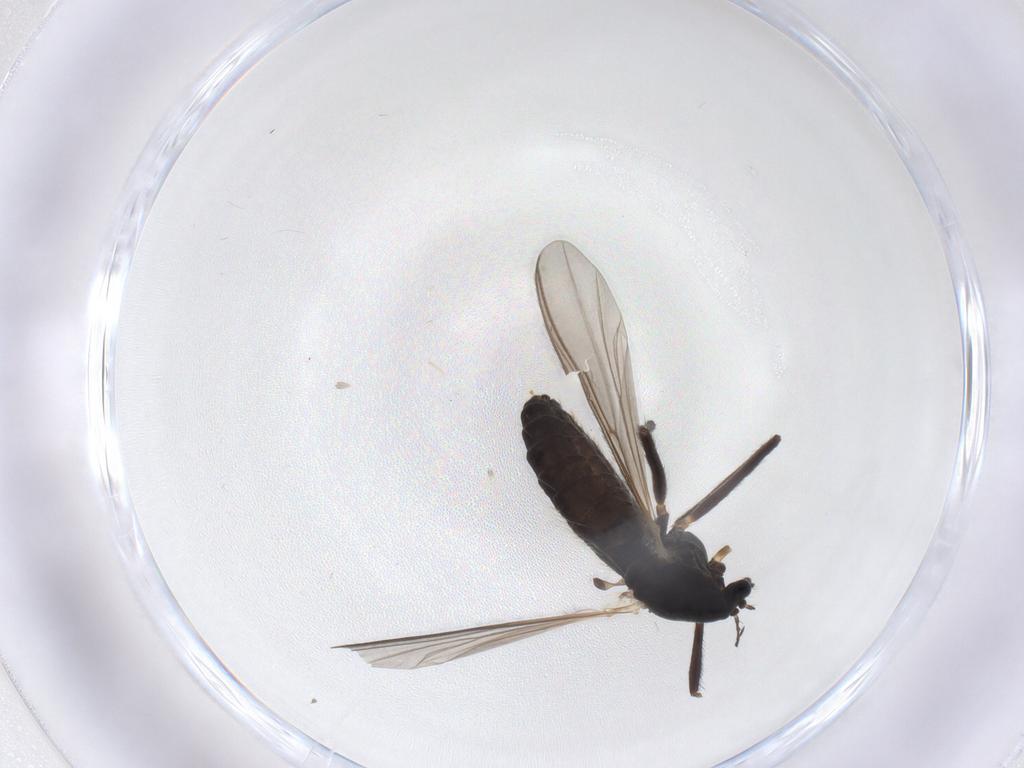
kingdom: Animalia
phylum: Arthropoda
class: Insecta
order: Diptera
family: Chironomidae
